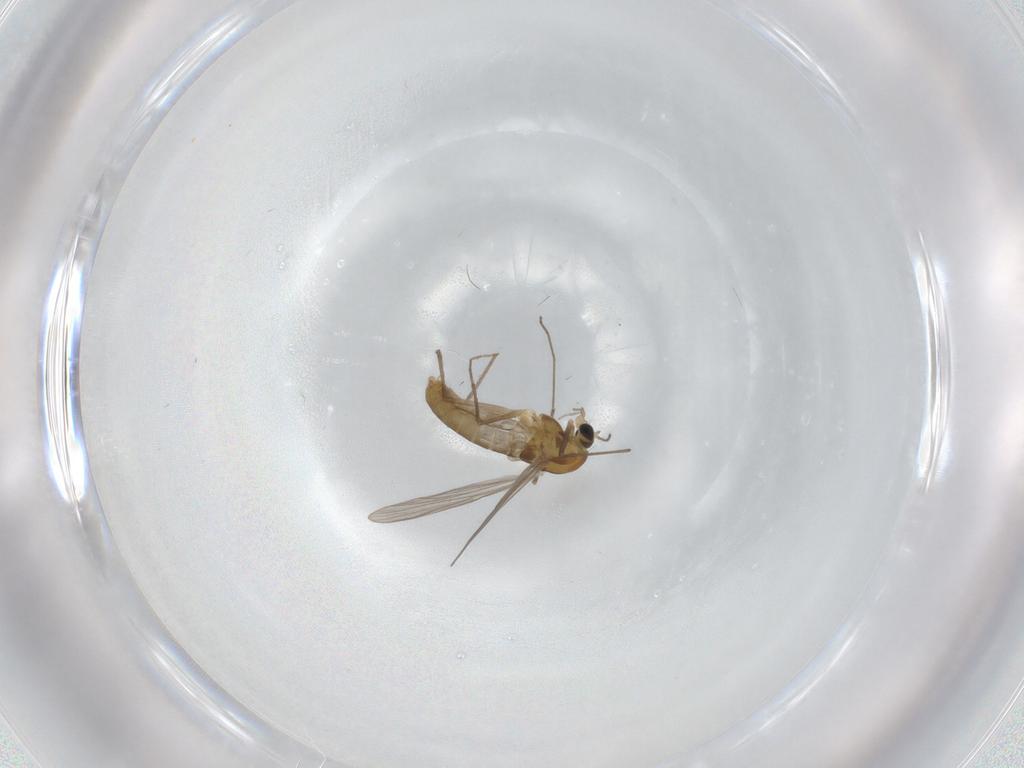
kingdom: Animalia
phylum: Arthropoda
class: Insecta
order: Diptera
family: Chironomidae
